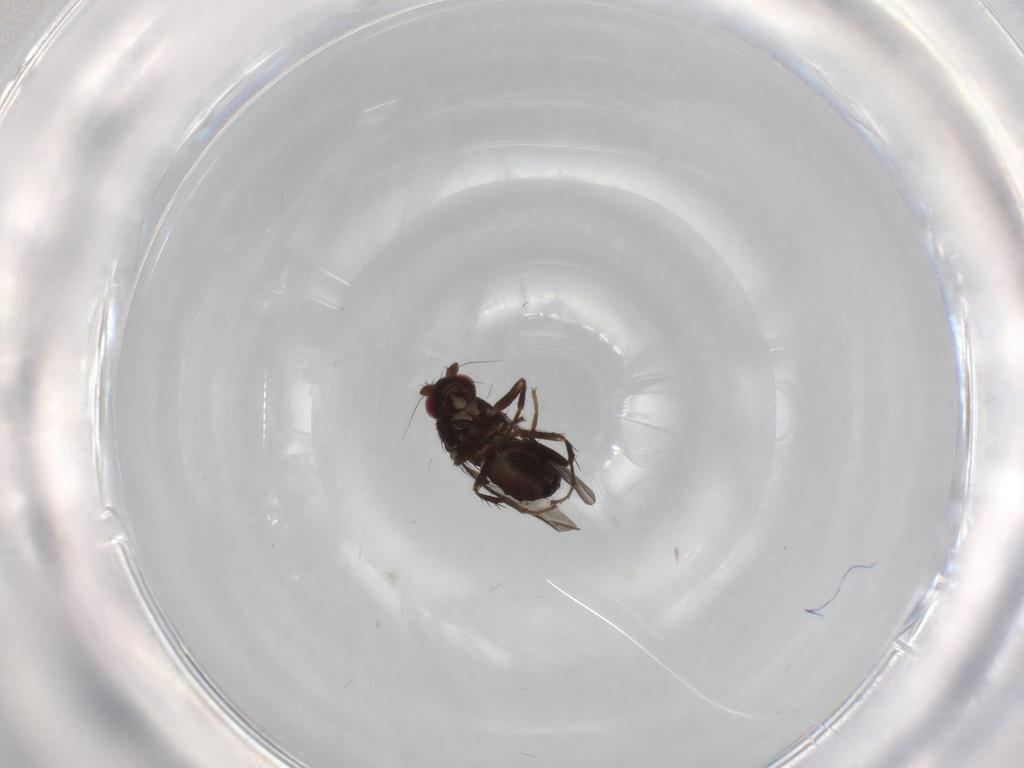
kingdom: Animalia
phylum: Arthropoda
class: Insecta
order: Diptera
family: Sphaeroceridae
